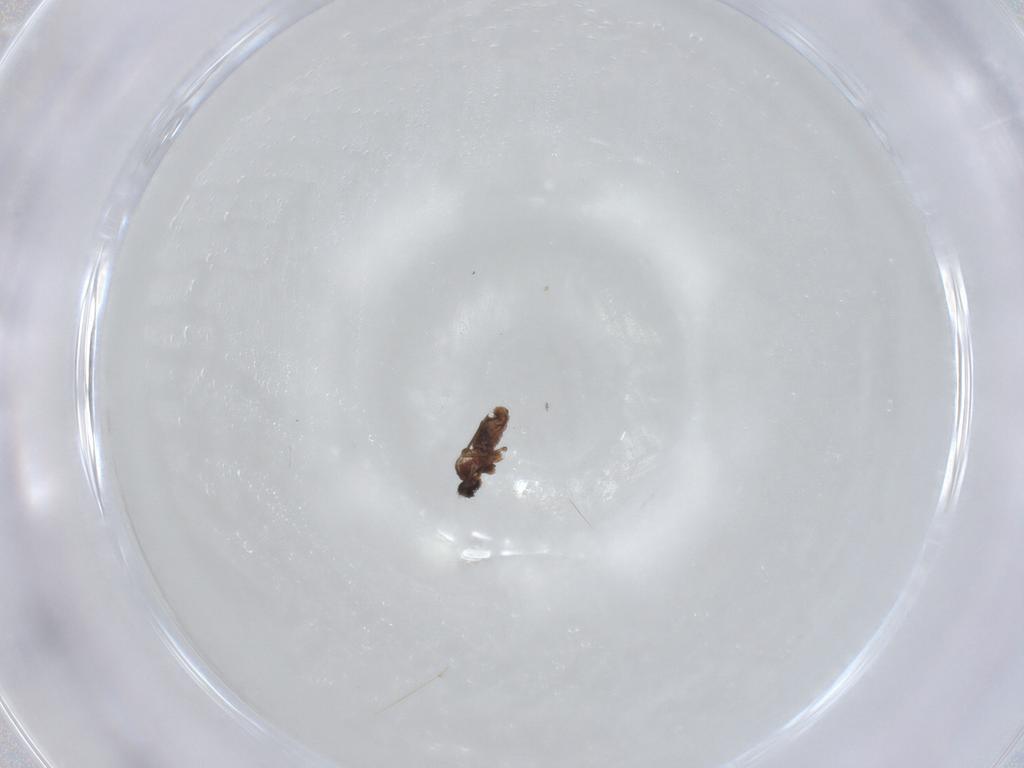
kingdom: Animalia
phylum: Arthropoda
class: Insecta
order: Diptera
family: Cecidomyiidae
